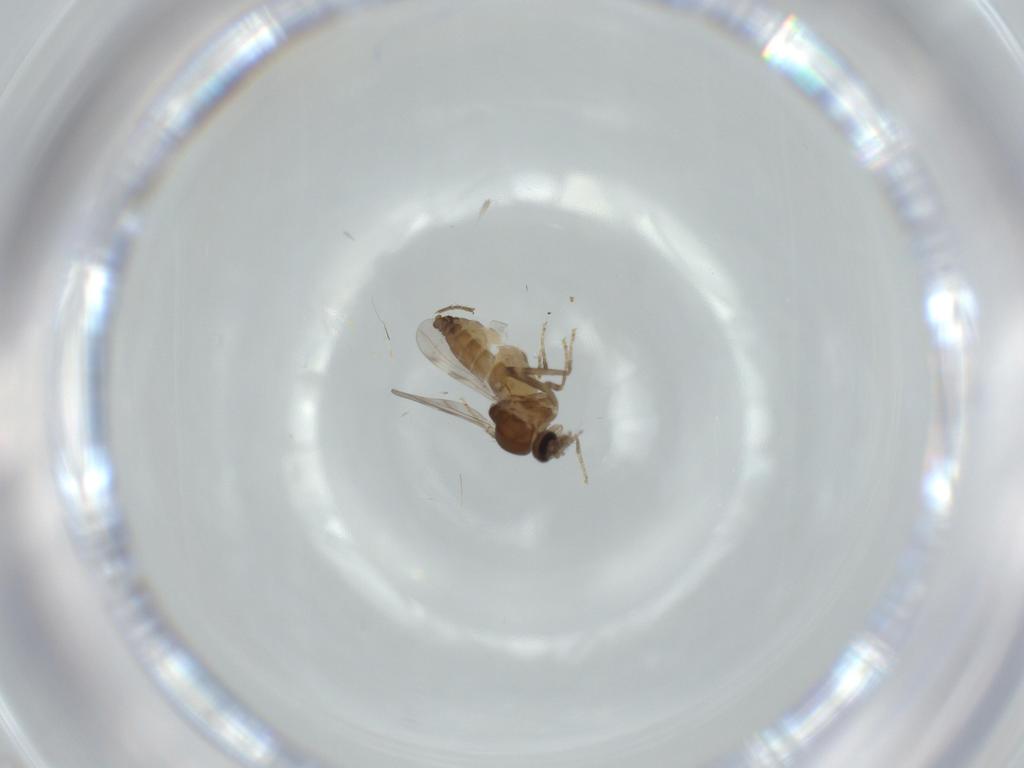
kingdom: Animalia
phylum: Arthropoda
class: Insecta
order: Diptera
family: Ceratopogonidae
